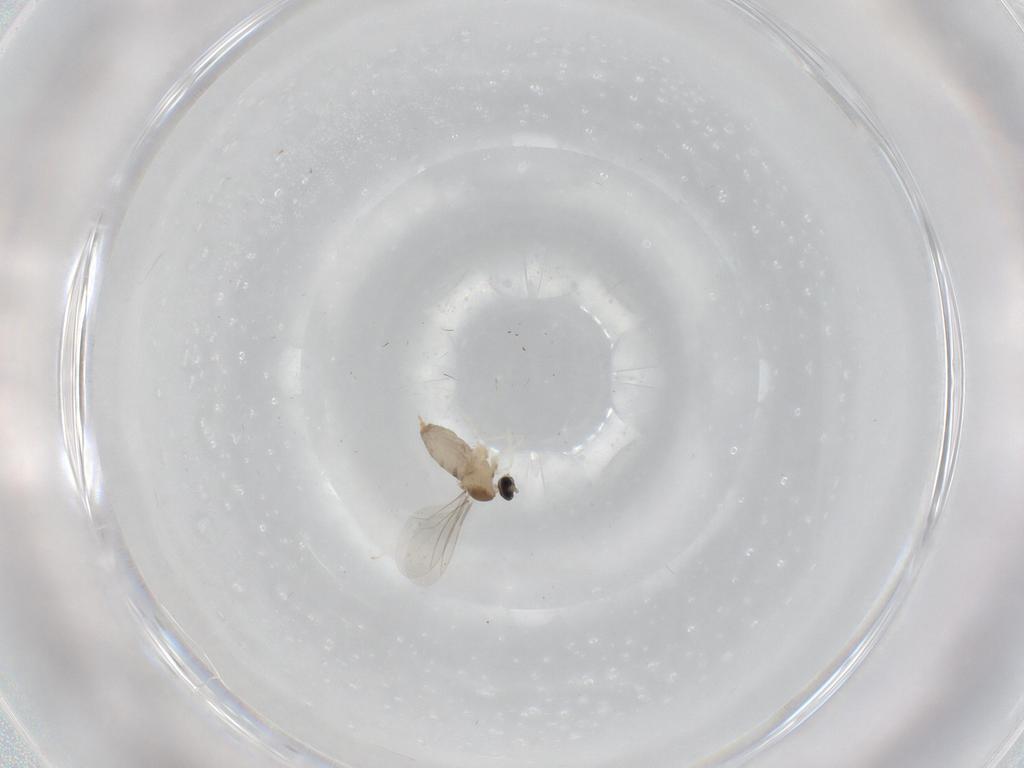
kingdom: Animalia
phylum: Arthropoda
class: Insecta
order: Diptera
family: Cecidomyiidae
